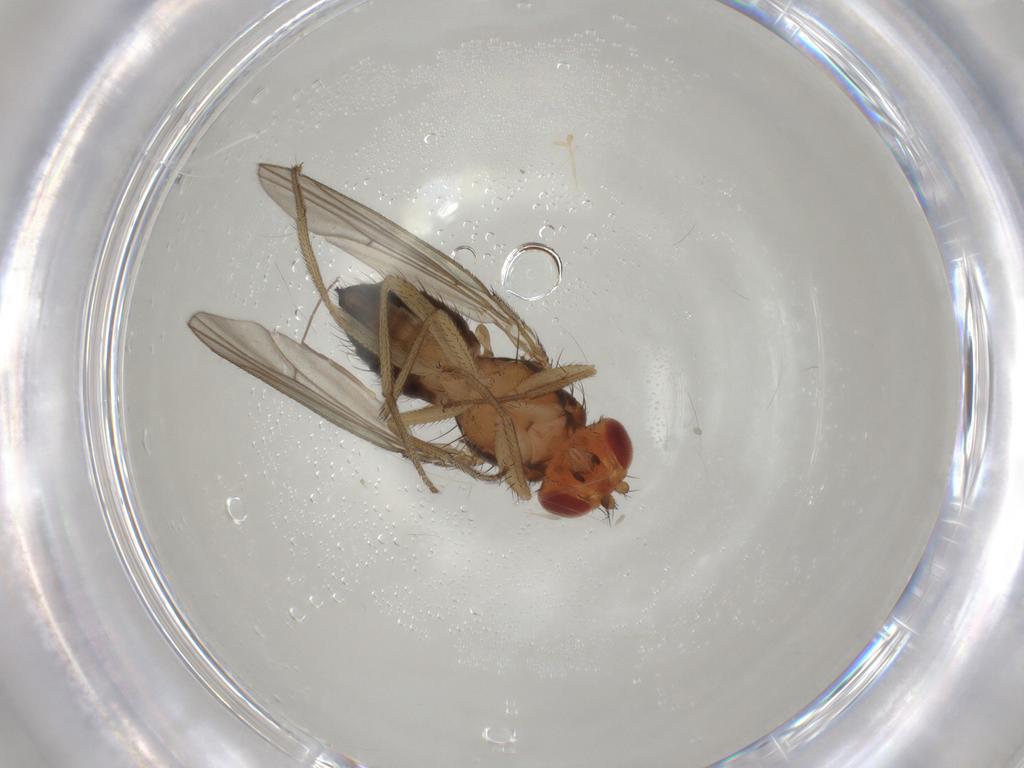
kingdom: Animalia
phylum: Arthropoda
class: Insecta
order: Diptera
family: Drosophilidae
